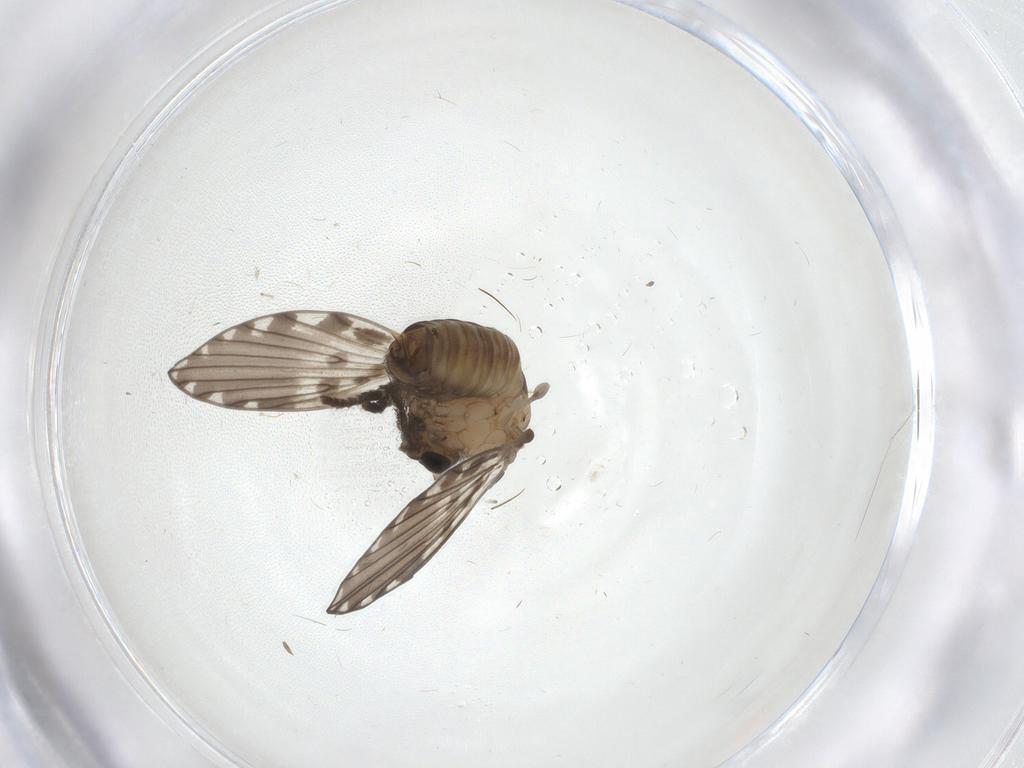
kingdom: Animalia
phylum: Arthropoda
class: Insecta
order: Diptera
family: Psychodidae
